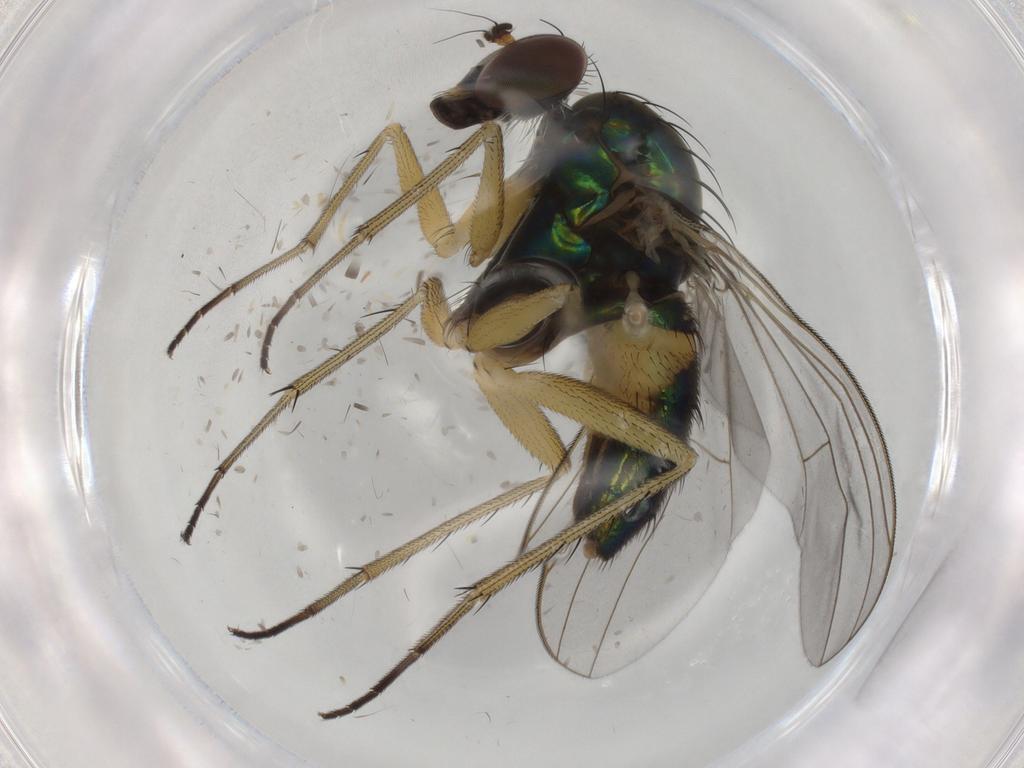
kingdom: Animalia
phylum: Arthropoda
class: Insecta
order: Diptera
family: Dolichopodidae
